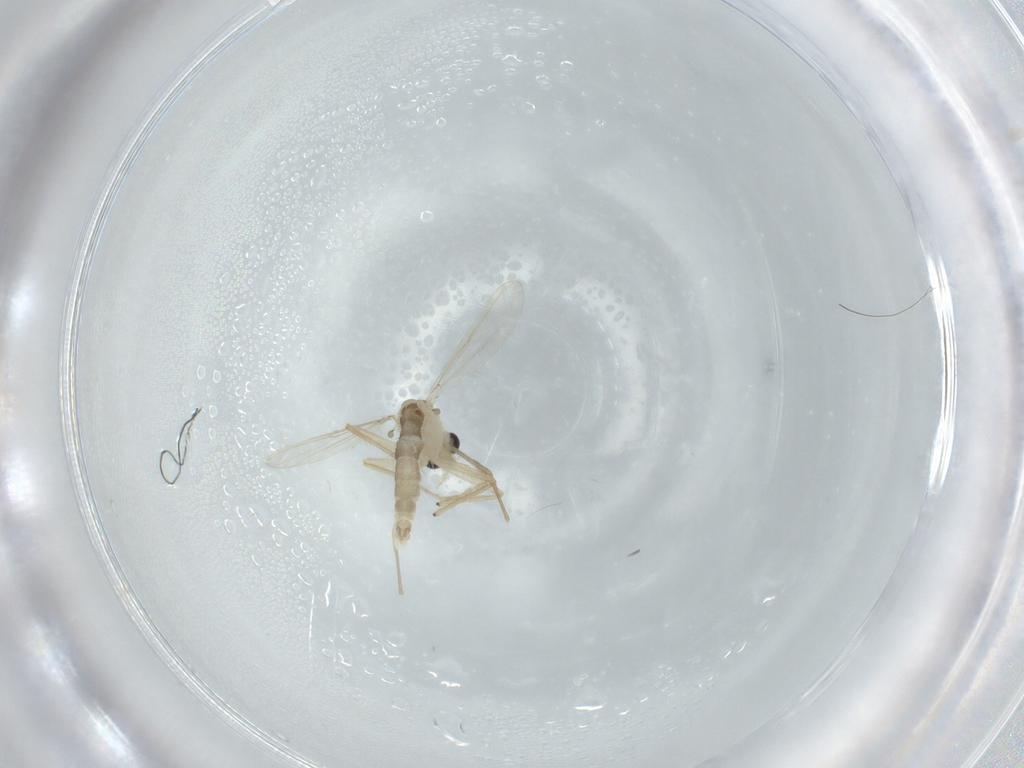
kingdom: Animalia
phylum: Arthropoda
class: Insecta
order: Diptera
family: Chironomidae
